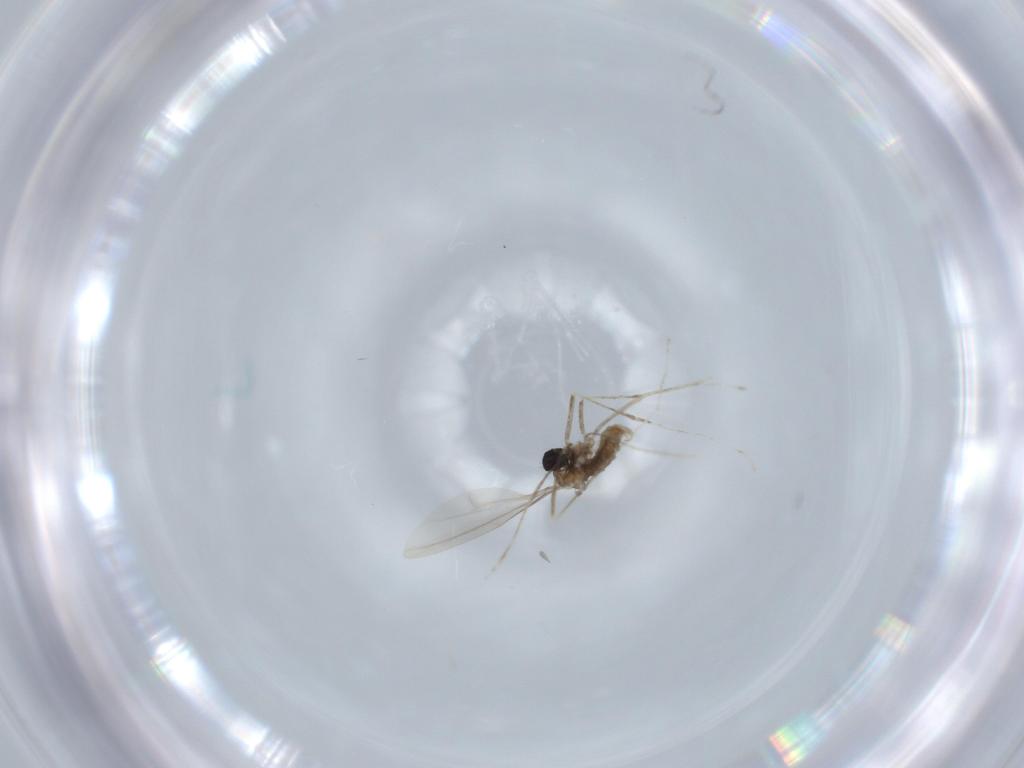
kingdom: Animalia
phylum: Arthropoda
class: Insecta
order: Diptera
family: Cecidomyiidae
